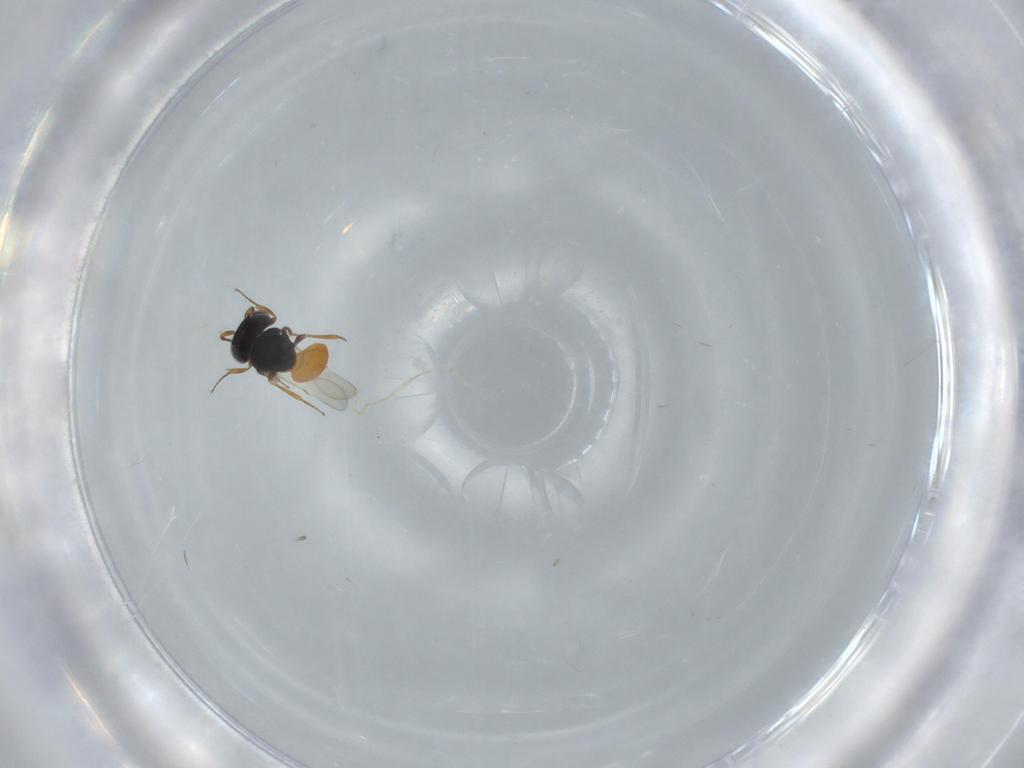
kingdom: Animalia
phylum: Arthropoda
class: Insecta
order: Hymenoptera
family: Scelionidae
